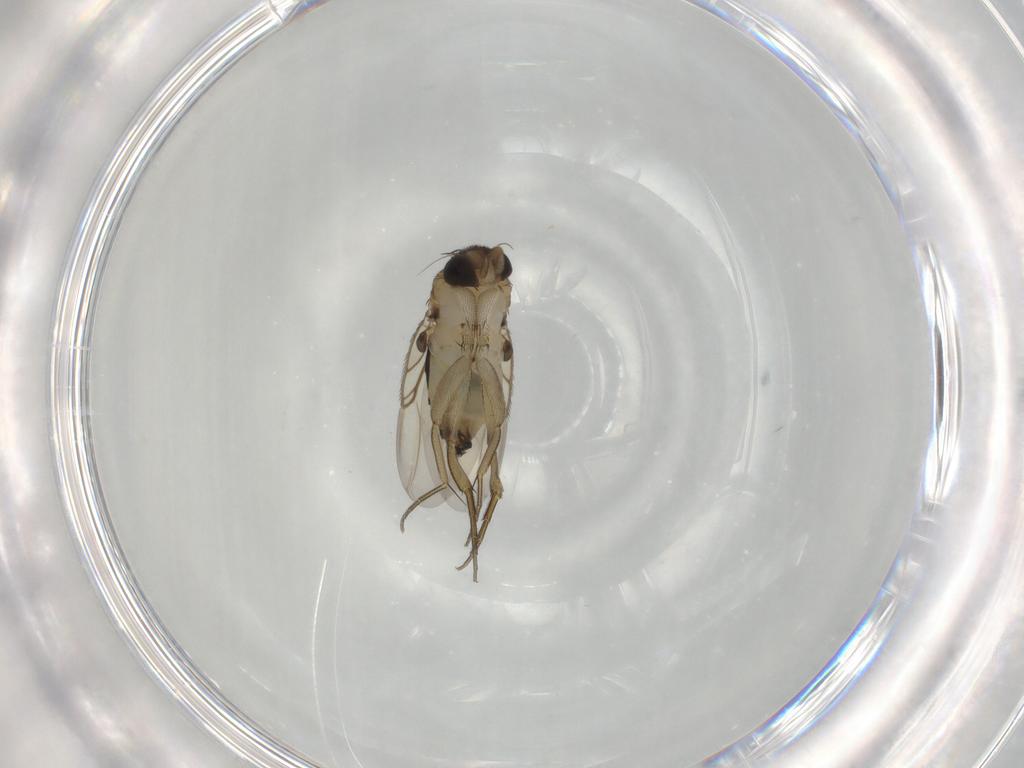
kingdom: Animalia
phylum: Arthropoda
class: Insecta
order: Diptera
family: Phoridae
